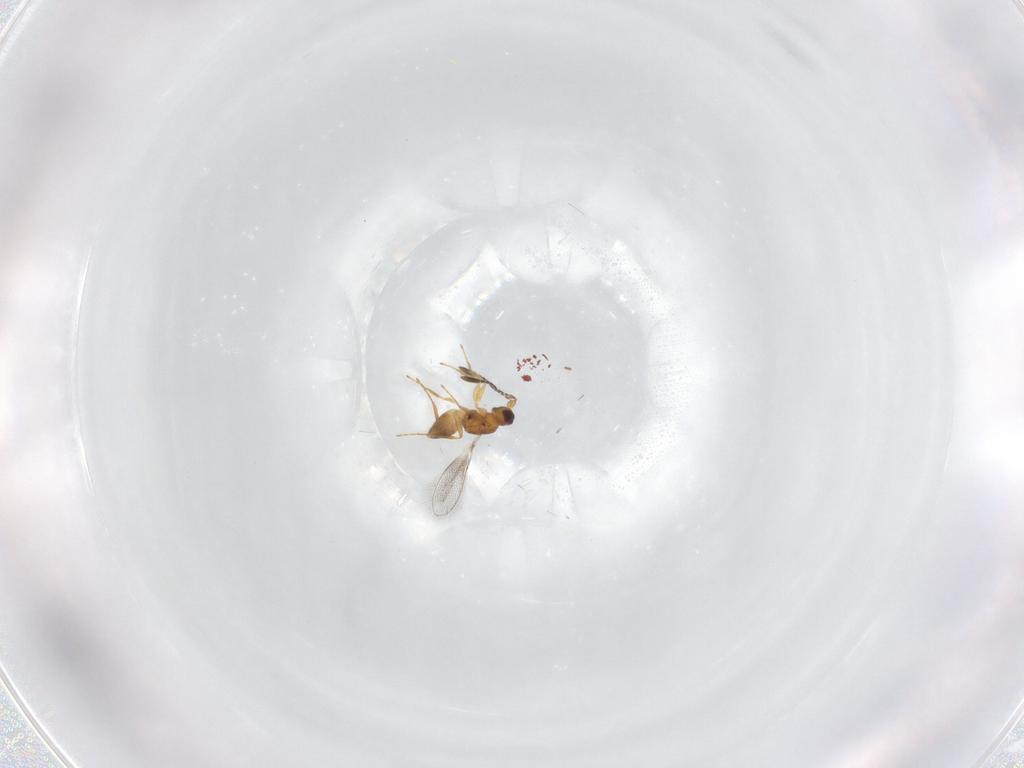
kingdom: Animalia
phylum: Arthropoda
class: Insecta
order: Hymenoptera
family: Mymaridae
